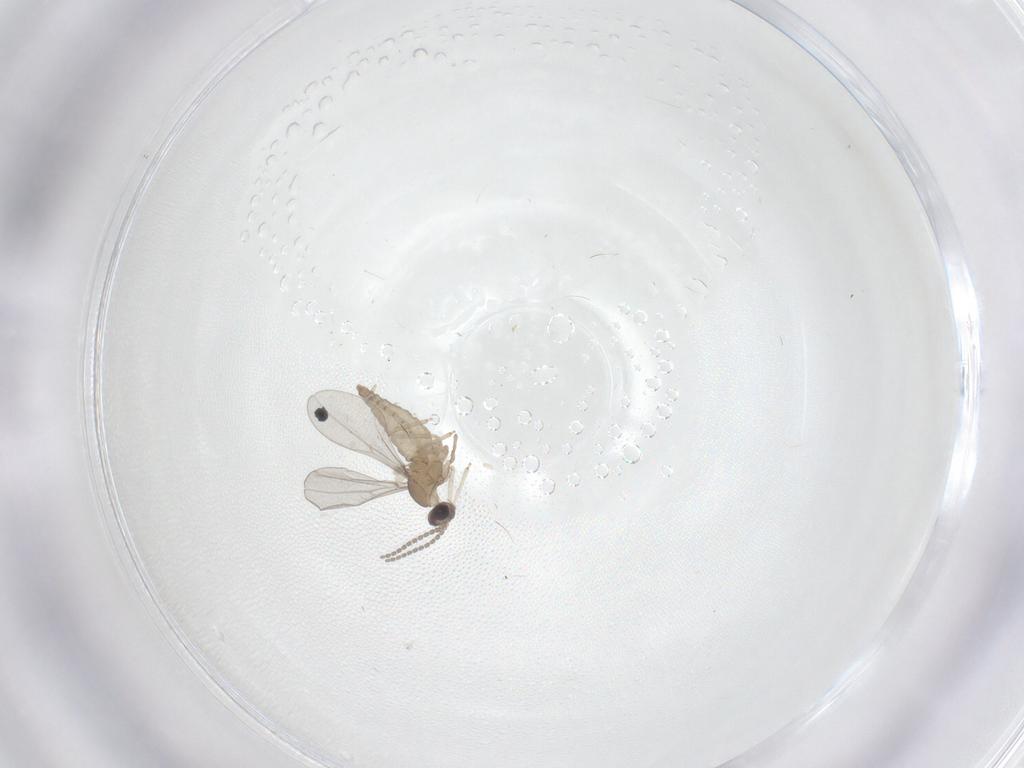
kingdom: Animalia
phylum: Arthropoda
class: Insecta
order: Diptera
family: Cecidomyiidae
